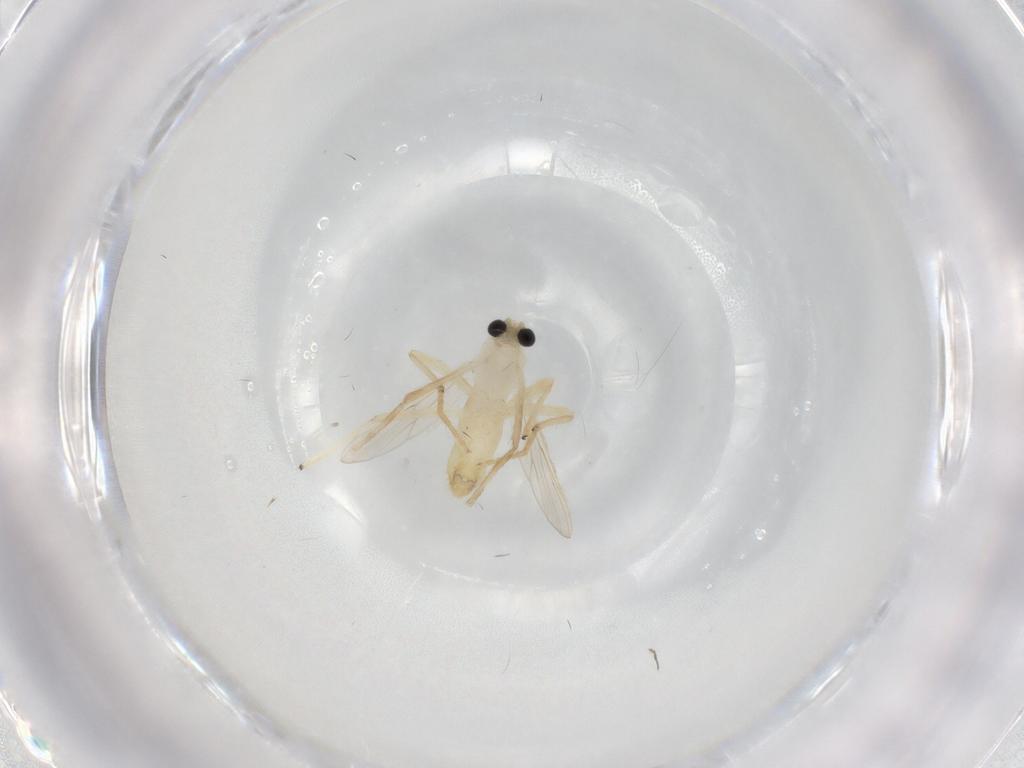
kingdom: Animalia
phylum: Arthropoda
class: Insecta
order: Diptera
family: Chironomidae
